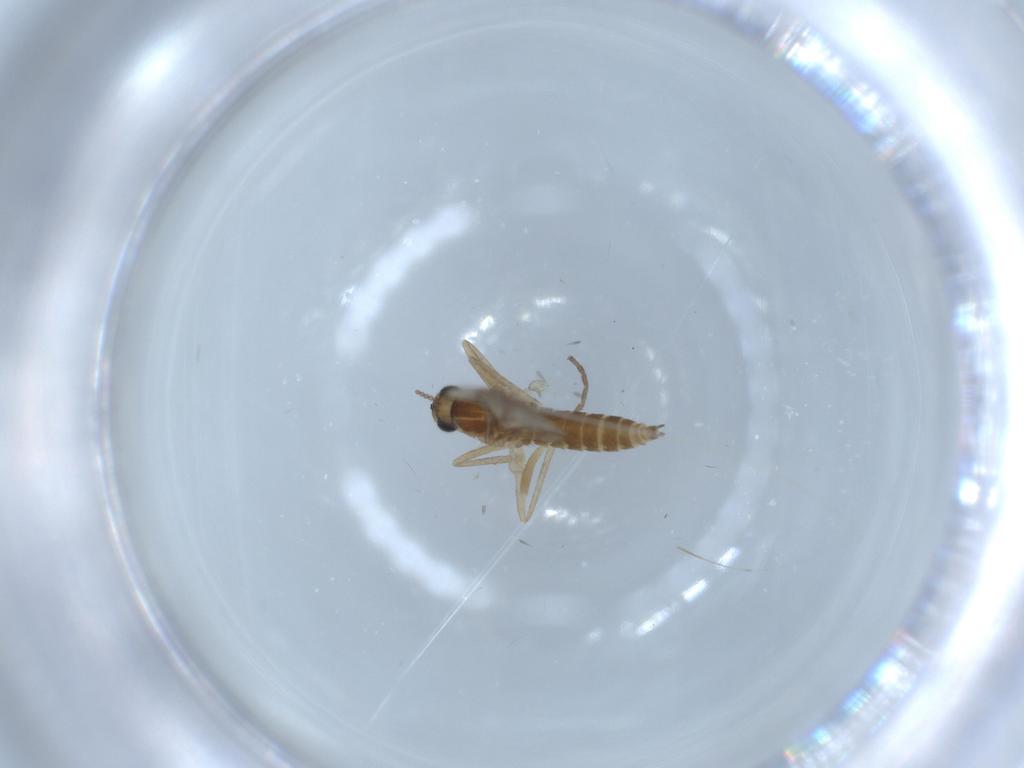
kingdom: Animalia
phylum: Arthropoda
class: Insecta
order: Diptera
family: Cecidomyiidae
